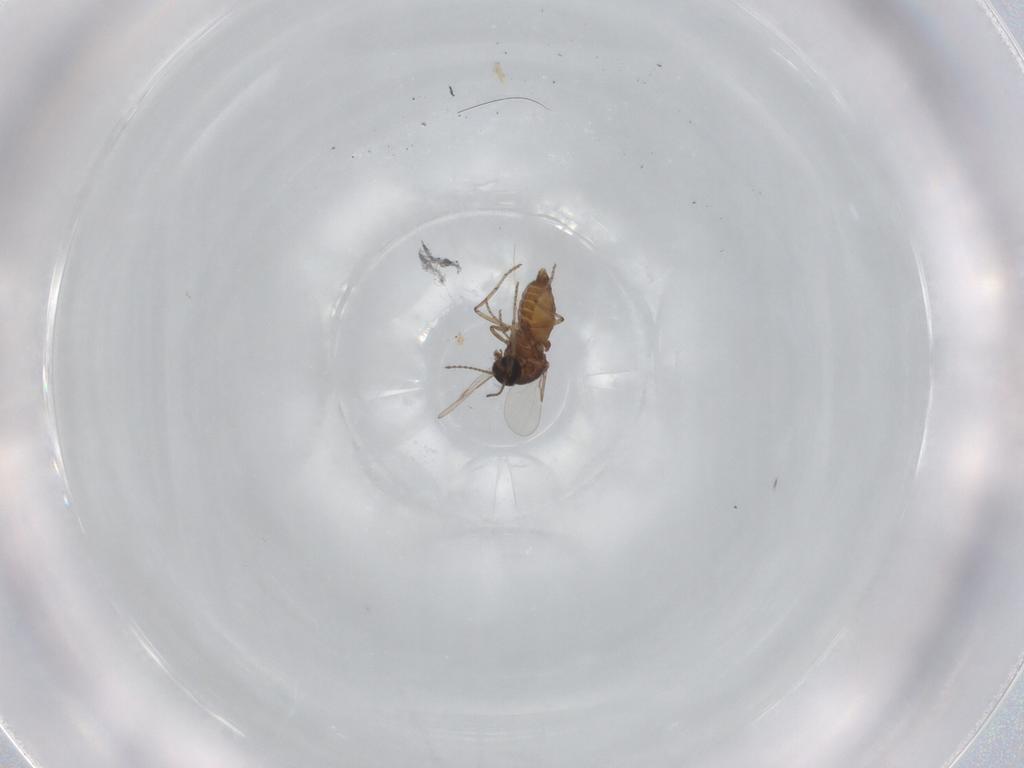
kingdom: Animalia
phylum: Arthropoda
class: Insecta
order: Diptera
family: Ceratopogonidae
